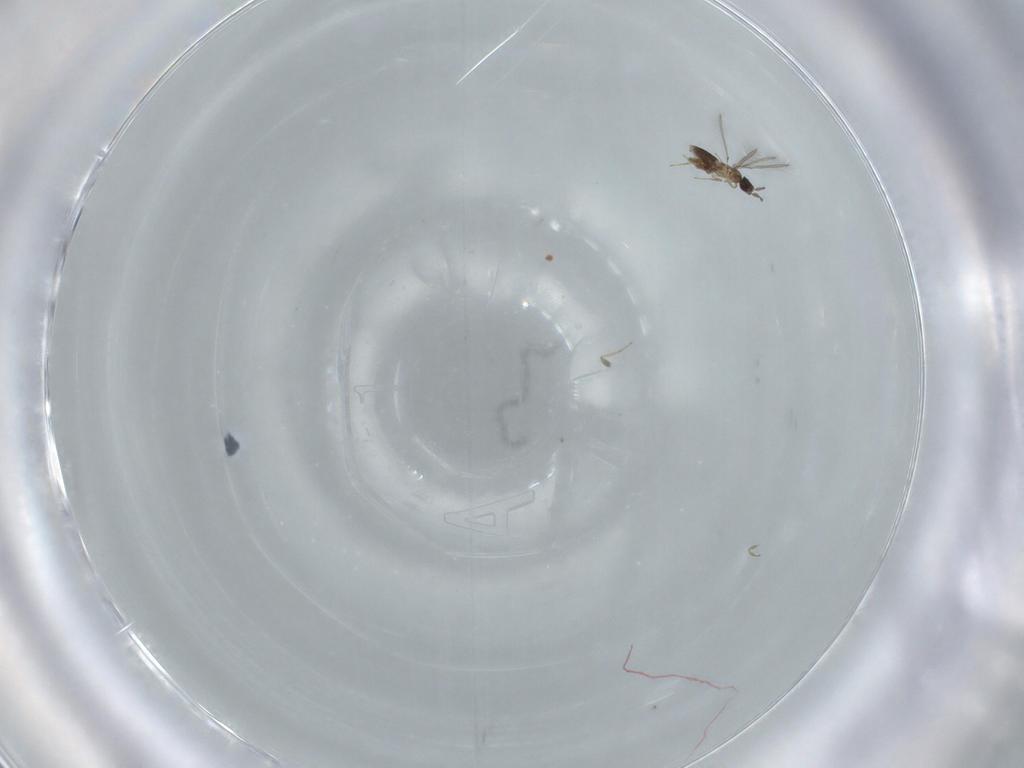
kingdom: Animalia
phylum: Arthropoda
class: Insecta
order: Hymenoptera
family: Mymaridae
